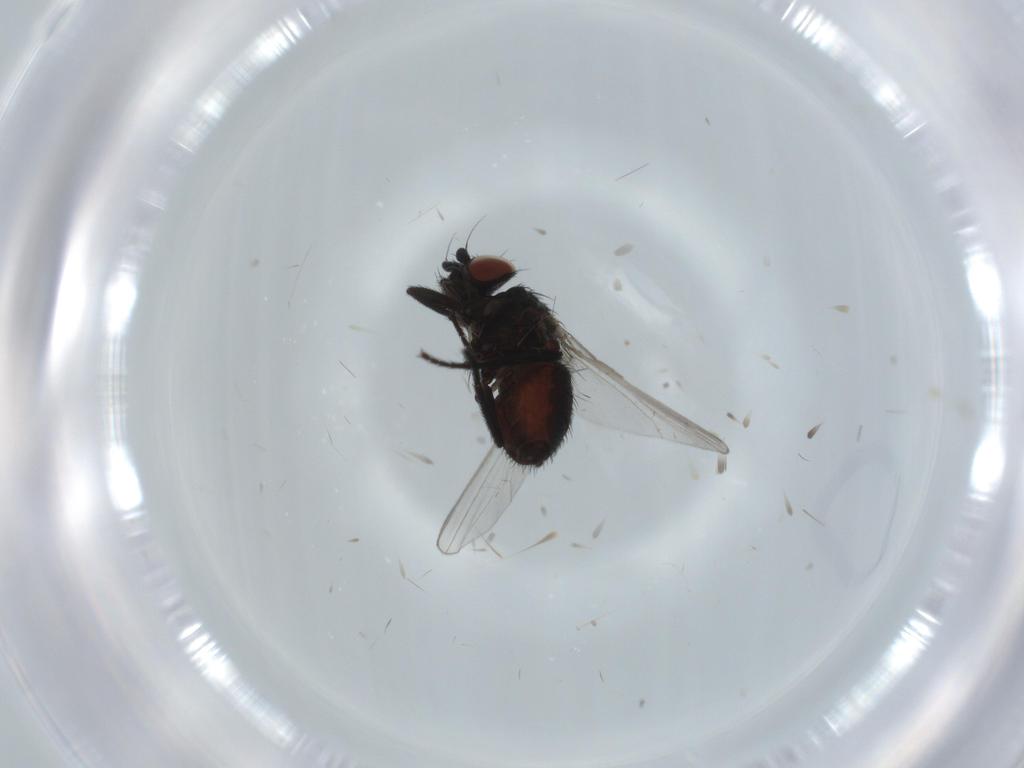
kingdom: Animalia
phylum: Arthropoda
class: Insecta
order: Diptera
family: Milichiidae
